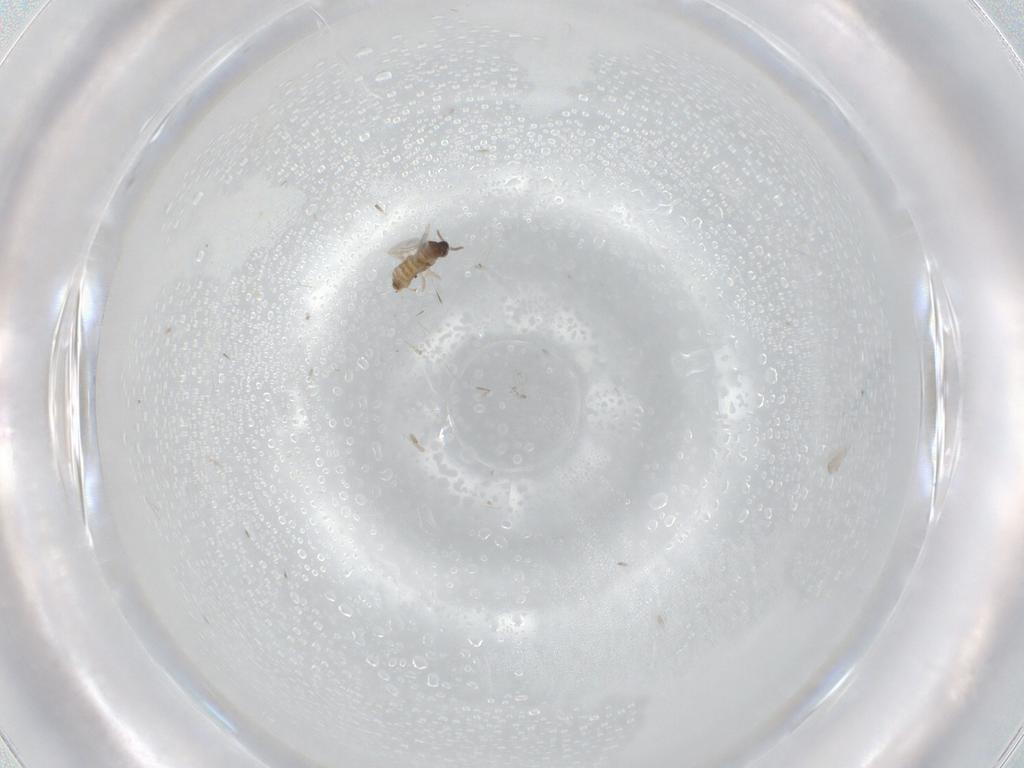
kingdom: Animalia
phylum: Arthropoda
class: Insecta
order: Diptera
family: Cecidomyiidae
